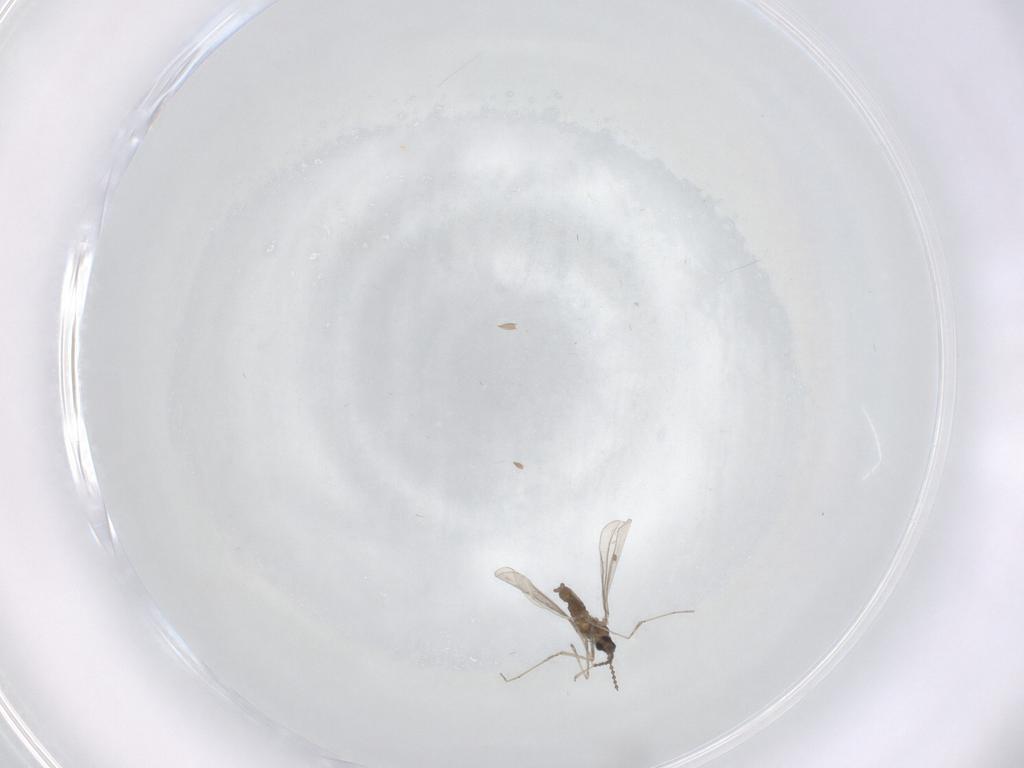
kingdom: Animalia
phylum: Arthropoda
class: Insecta
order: Diptera
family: Cecidomyiidae
